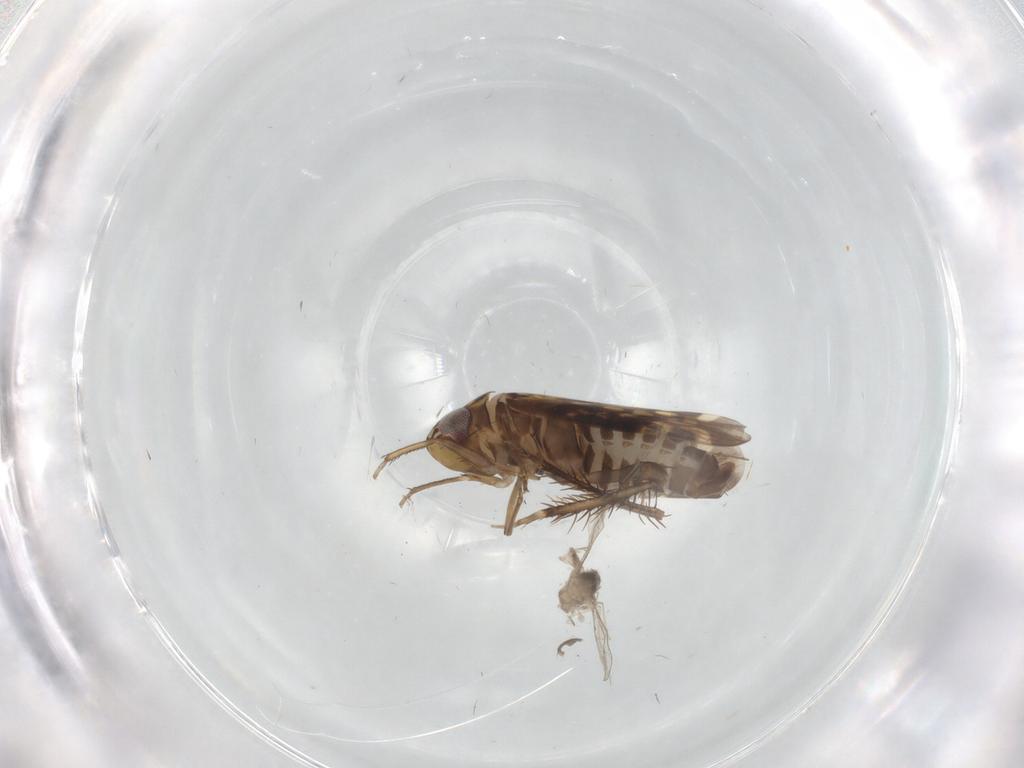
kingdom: Animalia
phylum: Arthropoda
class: Insecta
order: Hemiptera
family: Cicadellidae
